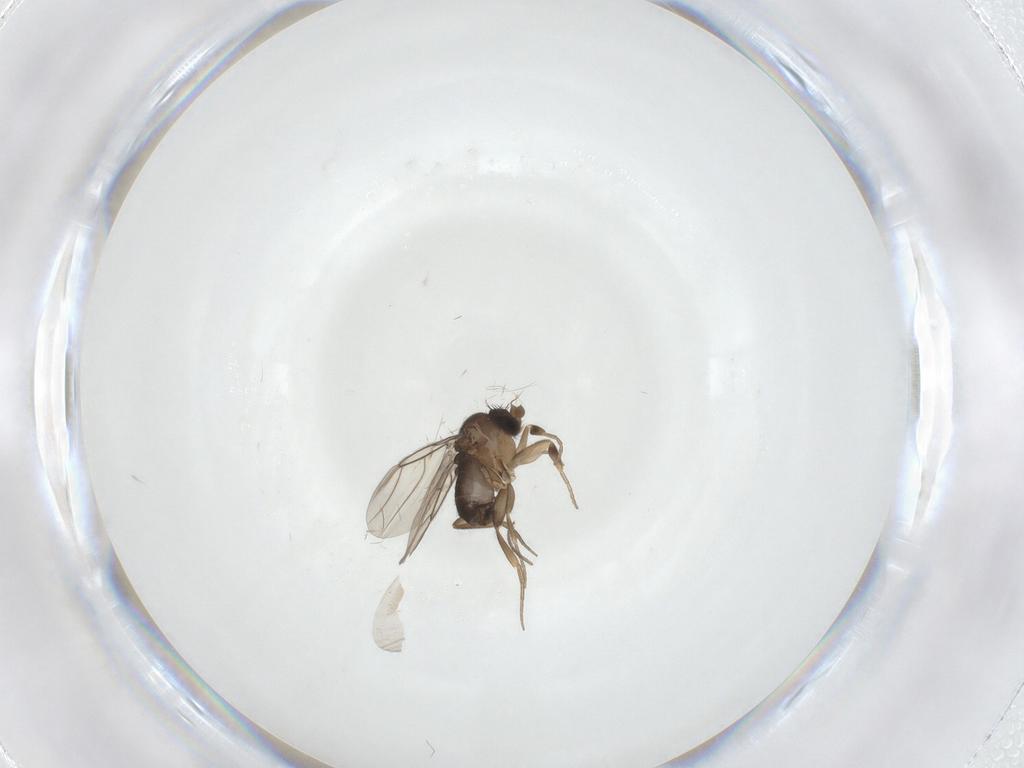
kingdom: Animalia
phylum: Arthropoda
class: Insecta
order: Diptera
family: Phoridae
